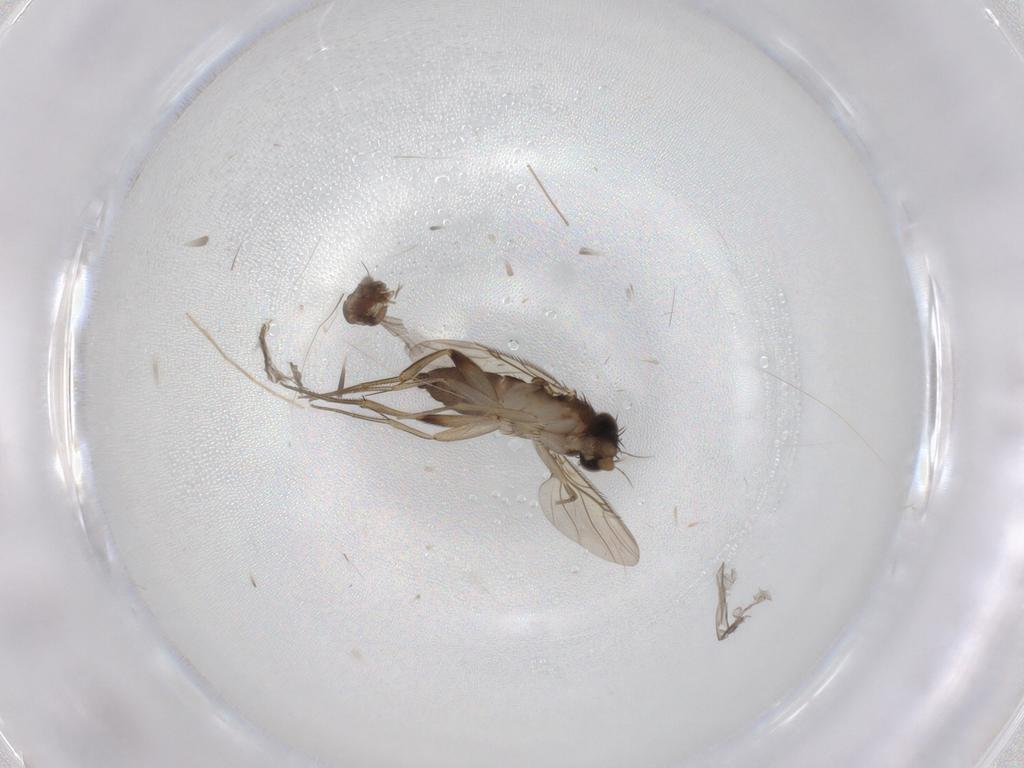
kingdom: Animalia
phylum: Arthropoda
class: Insecta
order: Diptera
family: Phoridae
